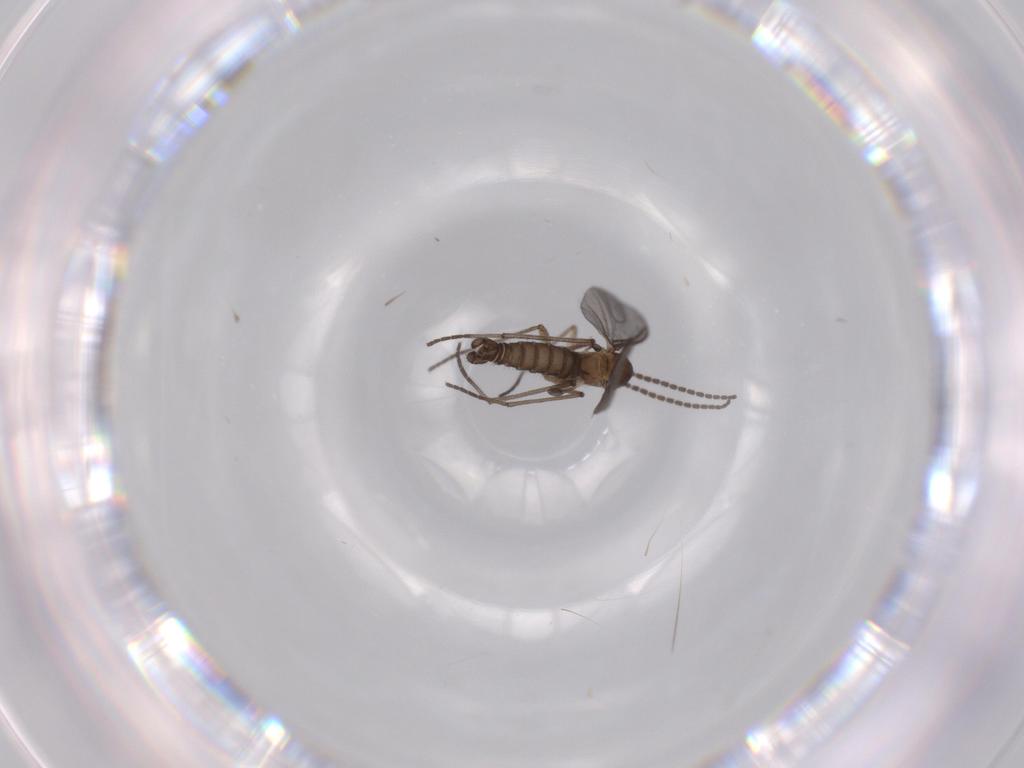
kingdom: Animalia
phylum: Arthropoda
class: Insecta
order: Diptera
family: Sciaridae
